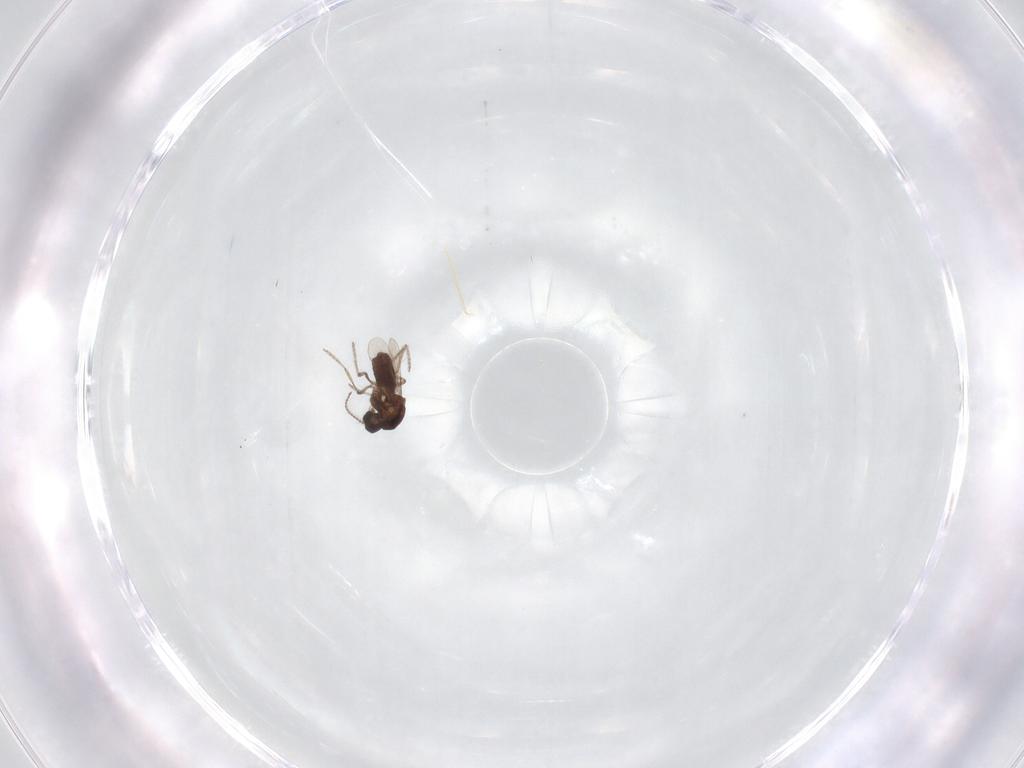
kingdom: Animalia
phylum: Arthropoda
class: Insecta
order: Diptera
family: Ceratopogonidae
